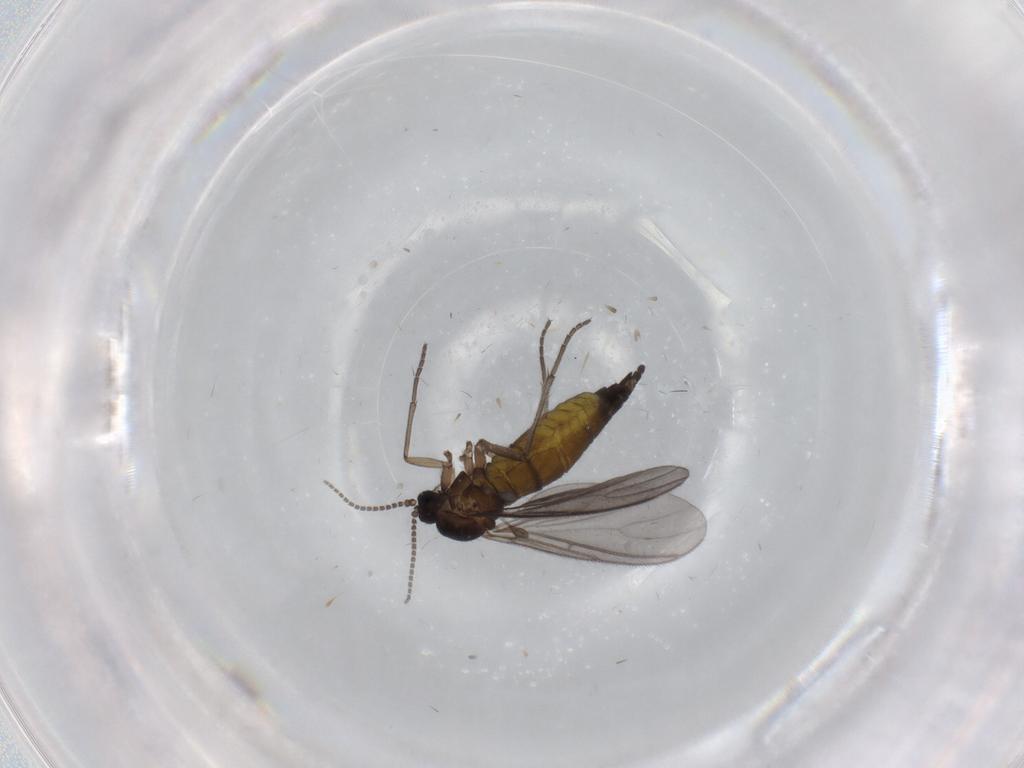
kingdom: Animalia
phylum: Arthropoda
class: Insecta
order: Diptera
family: Sciaridae
